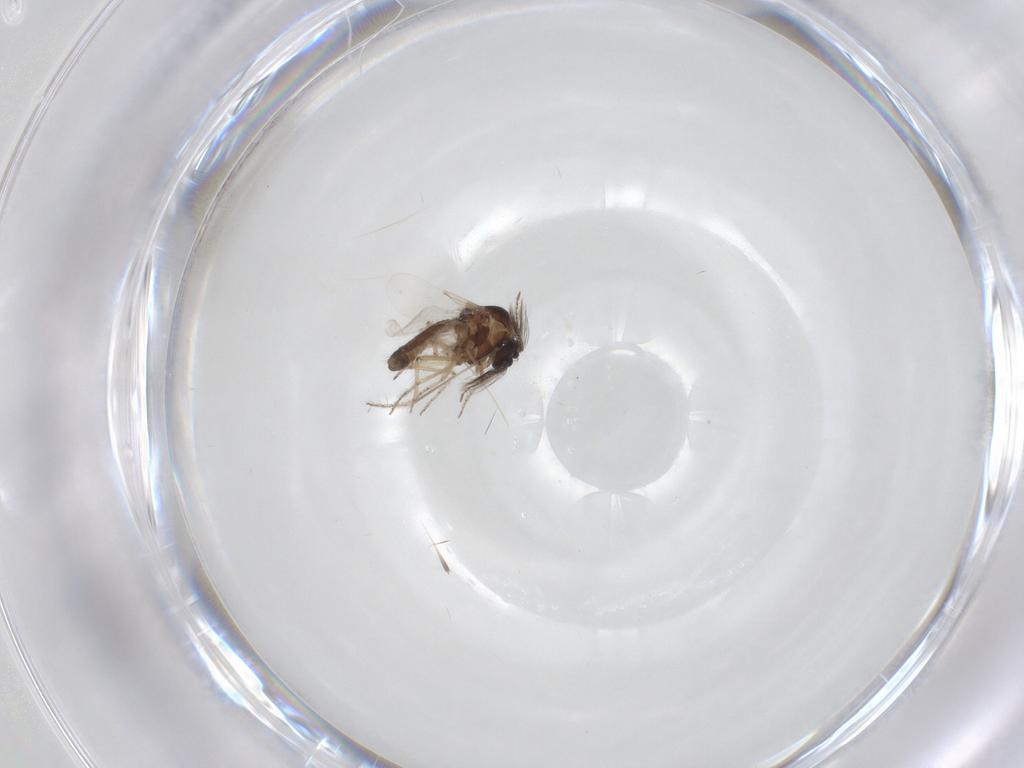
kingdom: Animalia
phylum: Arthropoda
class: Insecta
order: Diptera
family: Ceratopogonidae
